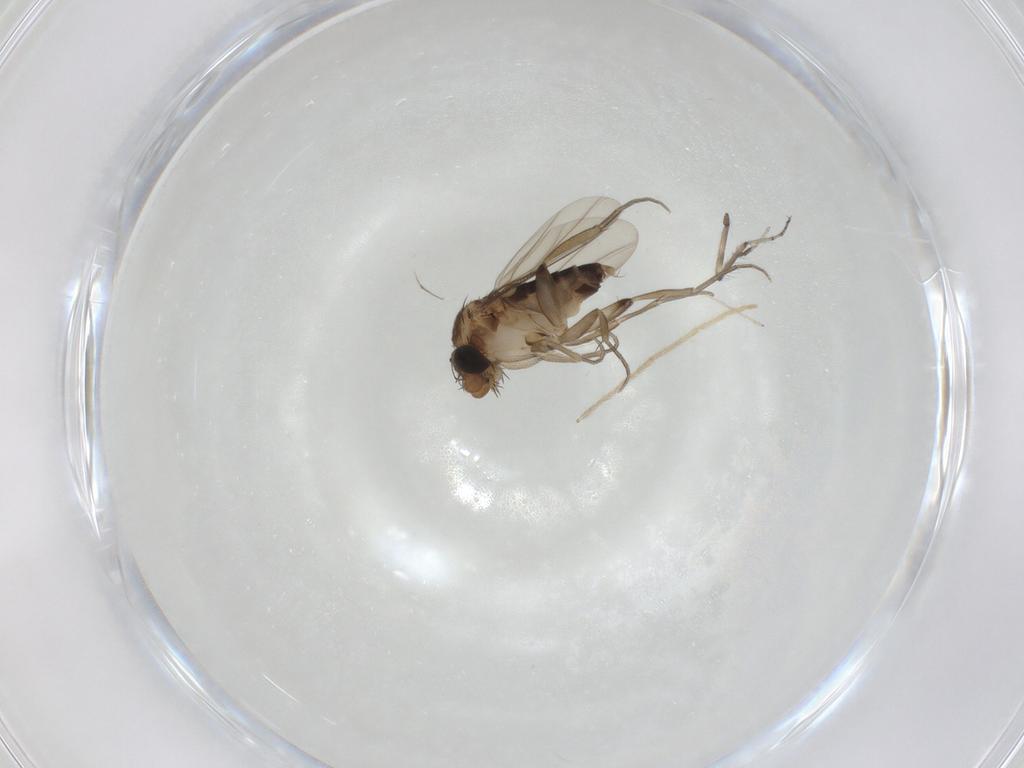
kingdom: Animalia
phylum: Arthropoda
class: Insecta
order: Diptera
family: Phoridae
